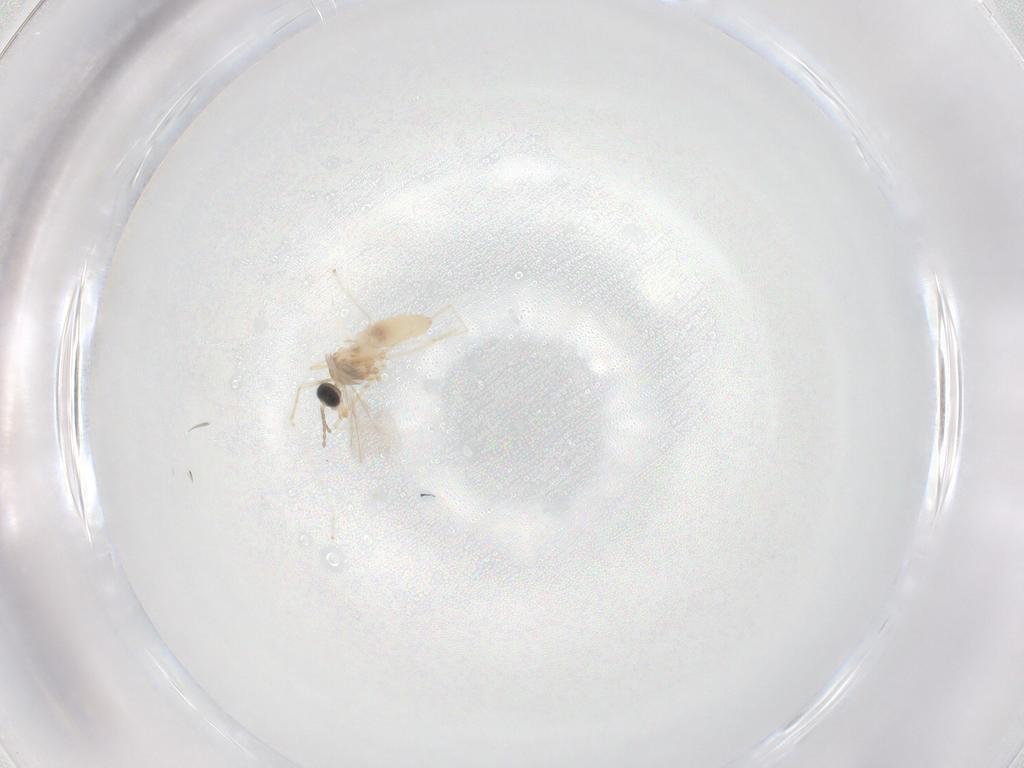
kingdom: Animalia
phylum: Arthropoda
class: Insecta
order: Diptera
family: Cecidomyiidae
